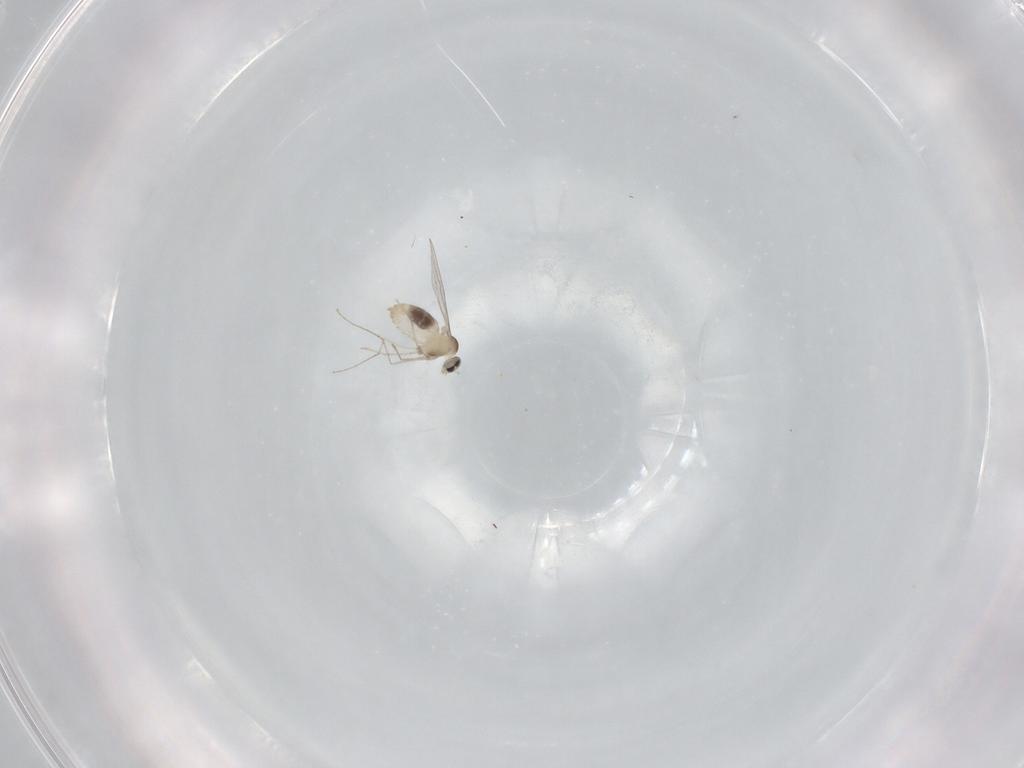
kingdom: Animalia
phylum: Arthropoda
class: Insecta
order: Diptera
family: Cecidomyiidae
